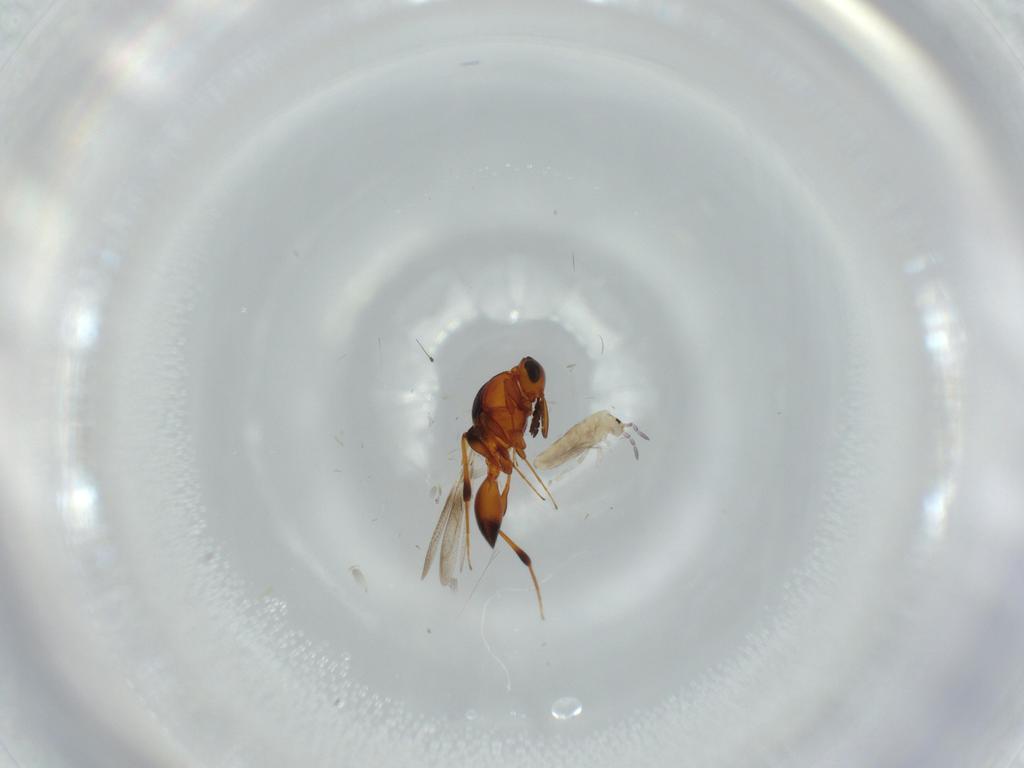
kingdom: Animalia
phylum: Arthropoda
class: Collembola
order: Entomobryomorpha
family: Entomobryidae
